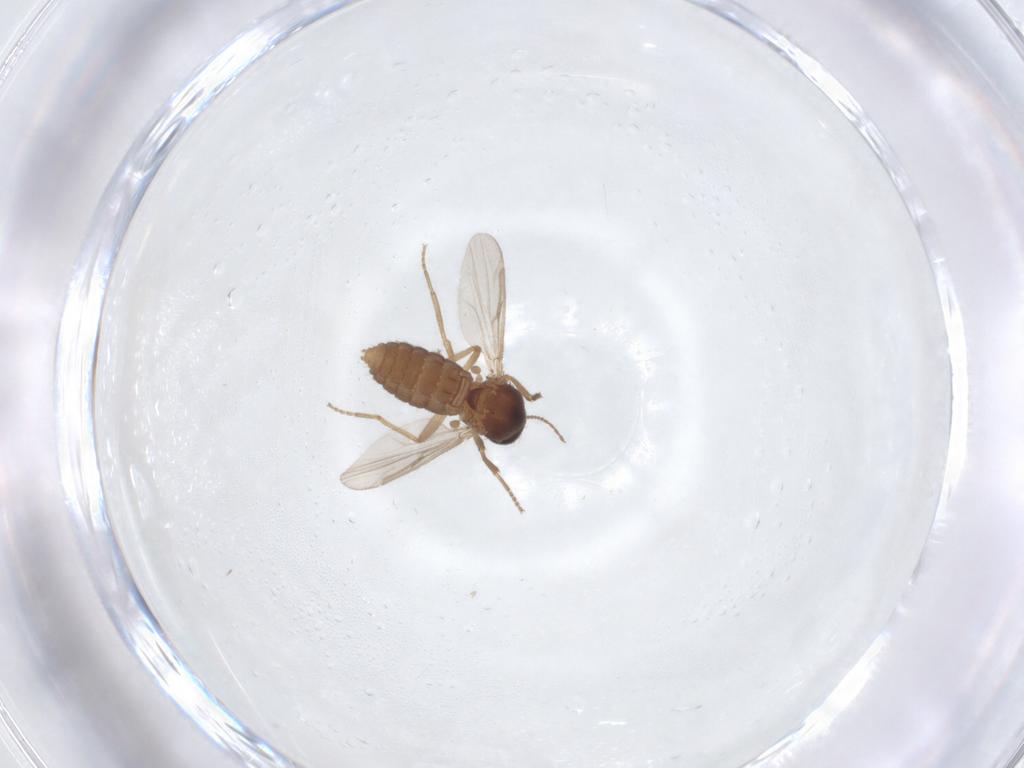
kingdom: Animalia
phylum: Arthropoda
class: Insecta
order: Diptera
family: Ceratopogonidae
